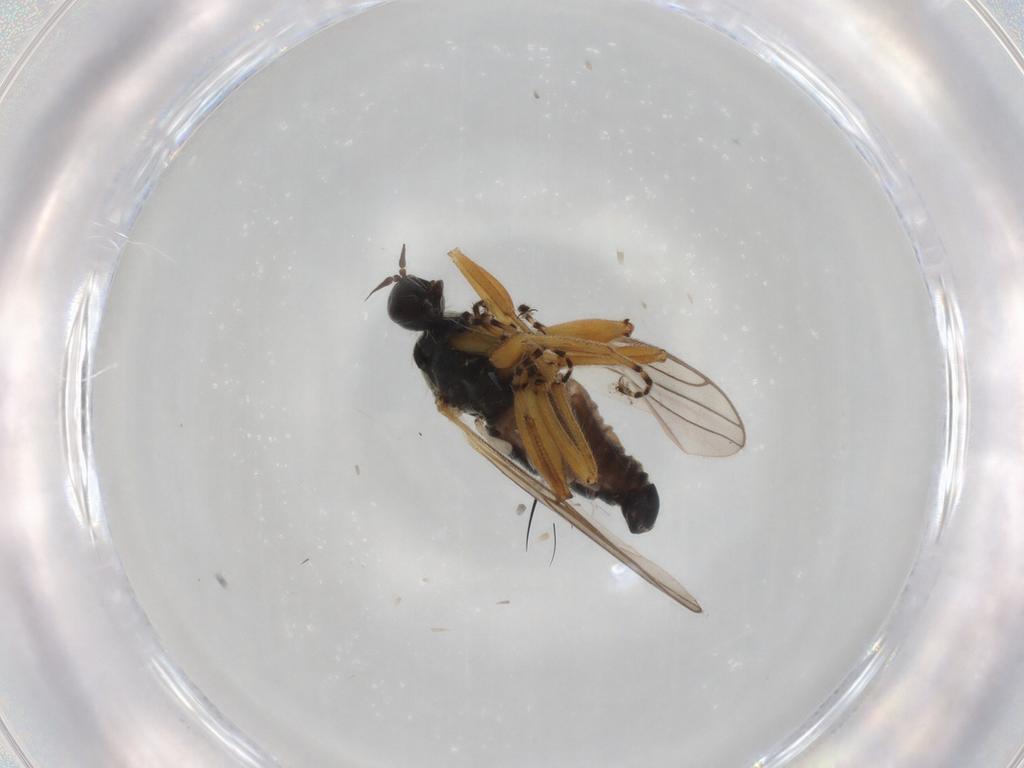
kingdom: Animalia
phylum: Arthropoda
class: Insecta
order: Diptera
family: Hybotidae
